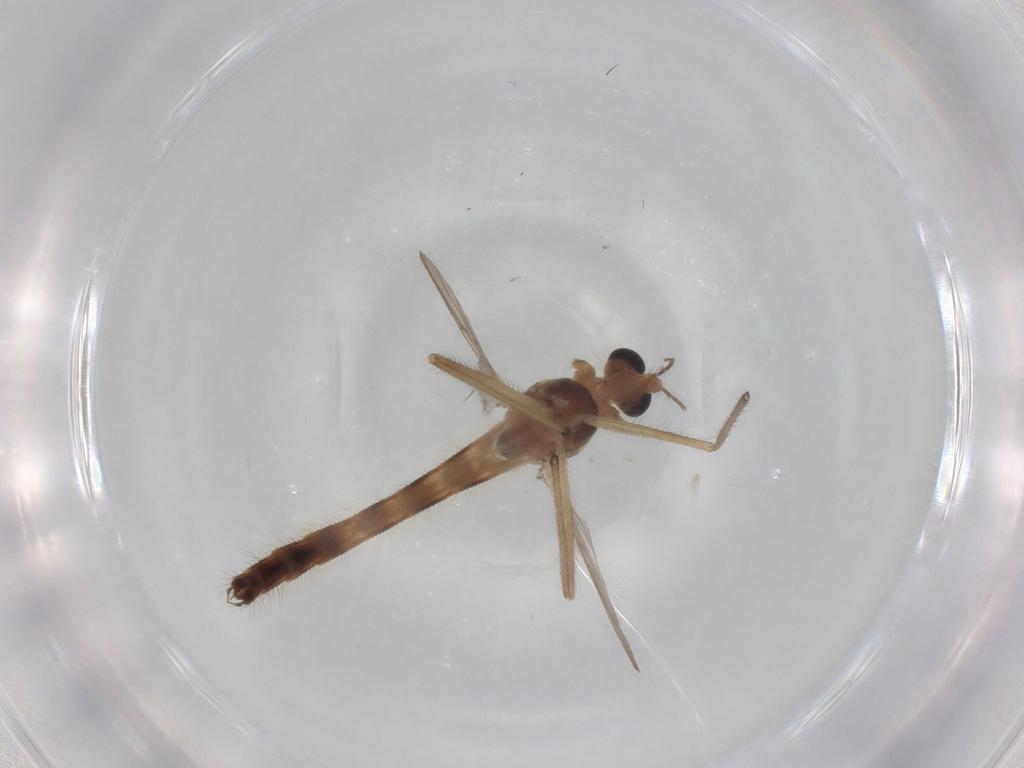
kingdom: Animalia
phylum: Arthropoda
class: Insecta
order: Diptera
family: Chironomidae
